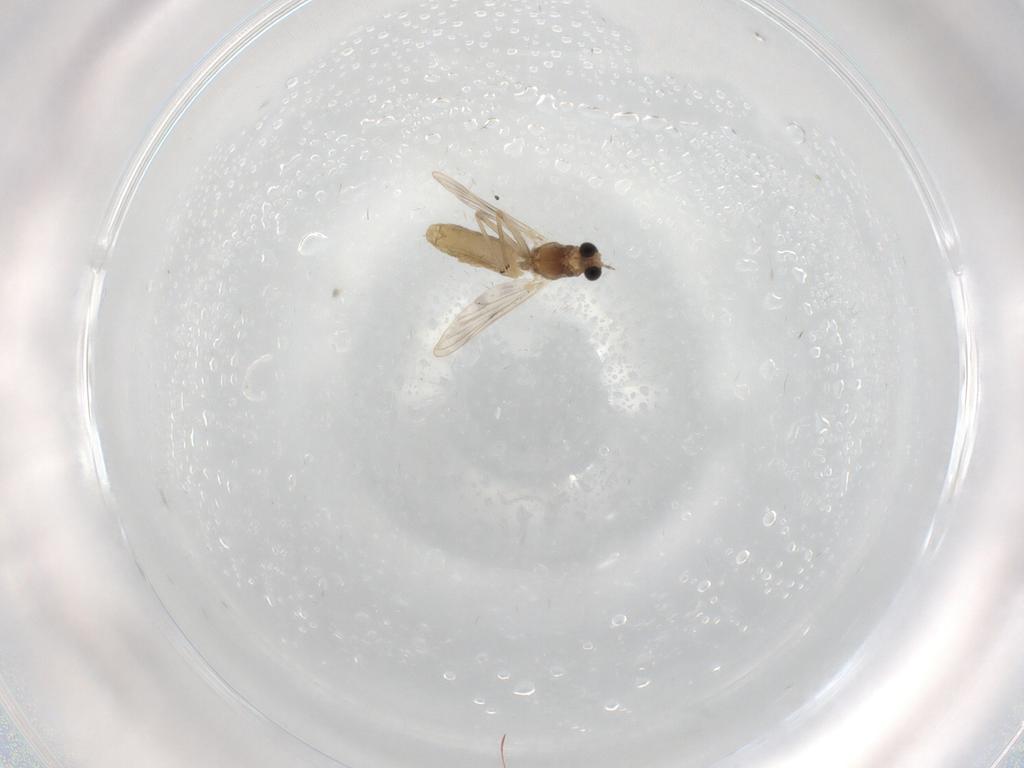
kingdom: Animalia
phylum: Arthropoda
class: Insecta
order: Diptera
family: Chironomidae
